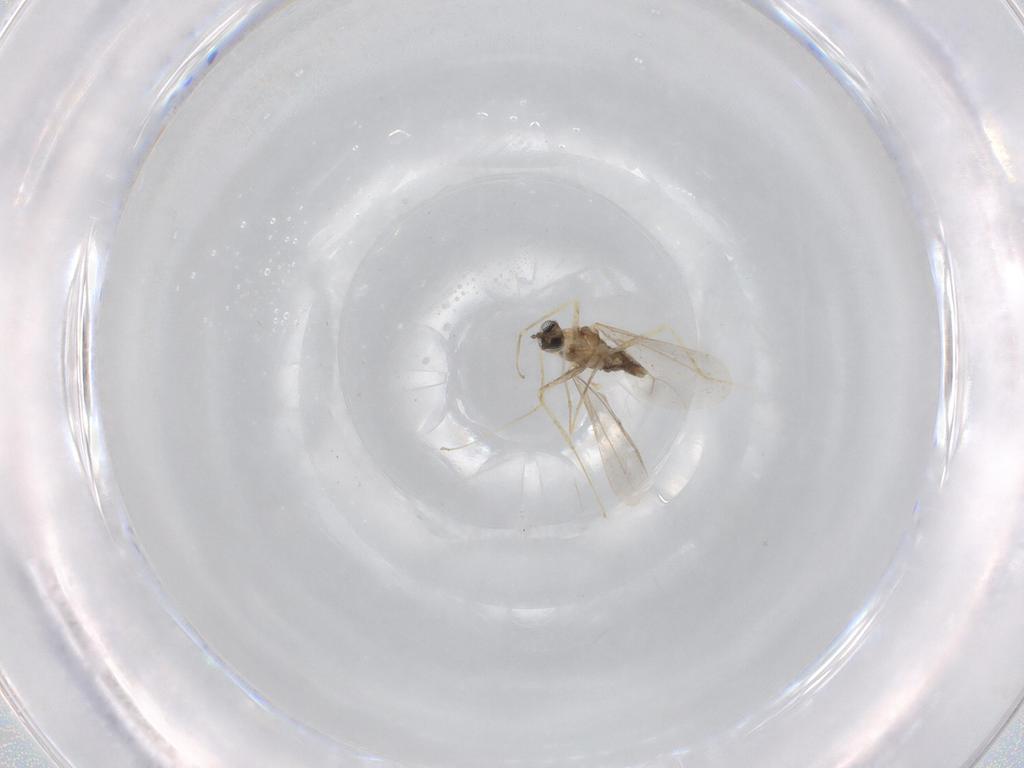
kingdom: Animalia
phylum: Arthropoda
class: Insecta
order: Diptera
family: Cecidomyiidae
